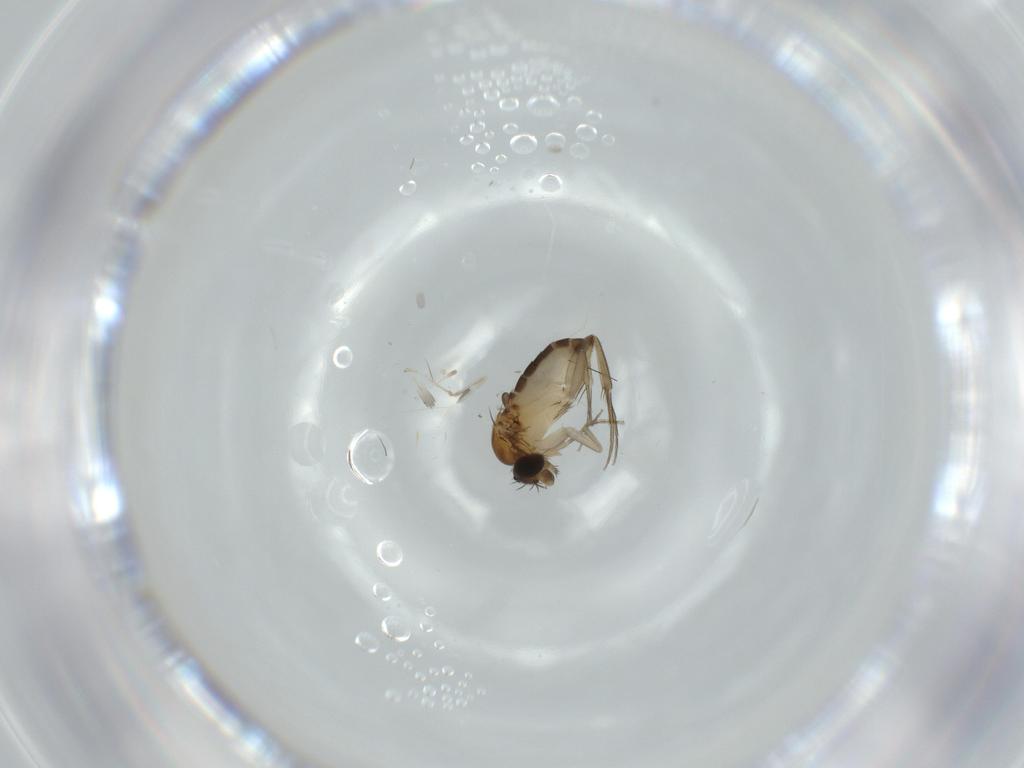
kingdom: Animalia
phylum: Arthropoda
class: Insecta
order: Diptera
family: Phoridae
